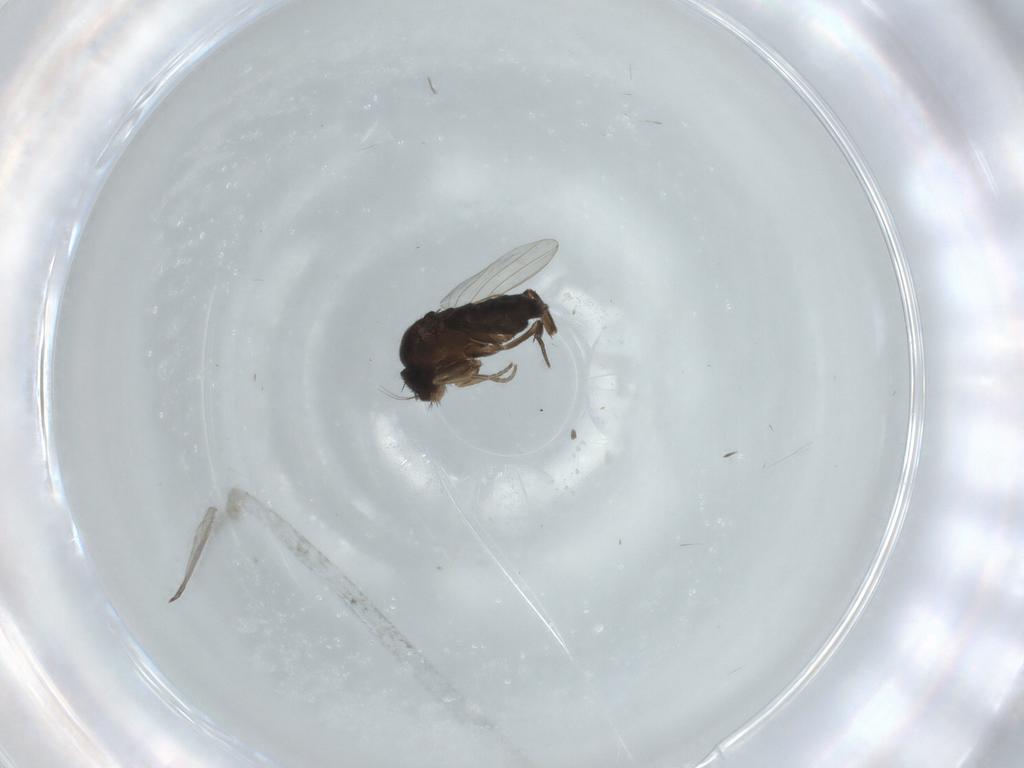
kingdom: Animalia
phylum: Arthropoda
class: Insecta
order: Diptera
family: Phoridae
